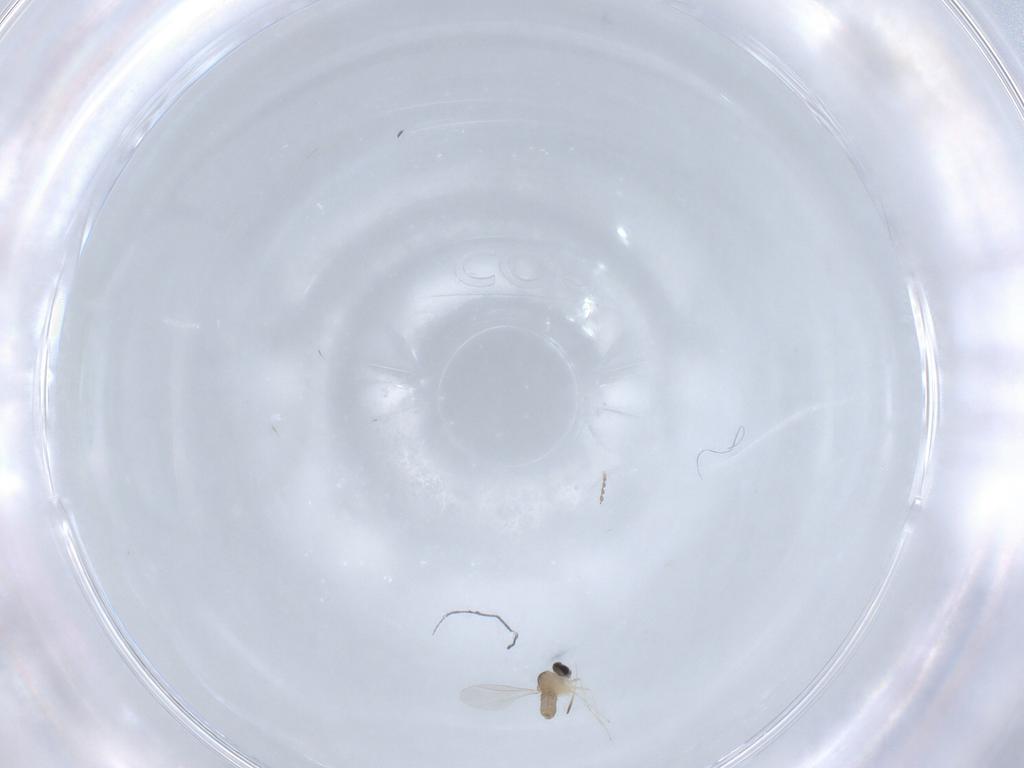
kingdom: Animalia
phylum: Arthropoda
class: Insecta
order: Diptera
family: Cecidomyiidae
